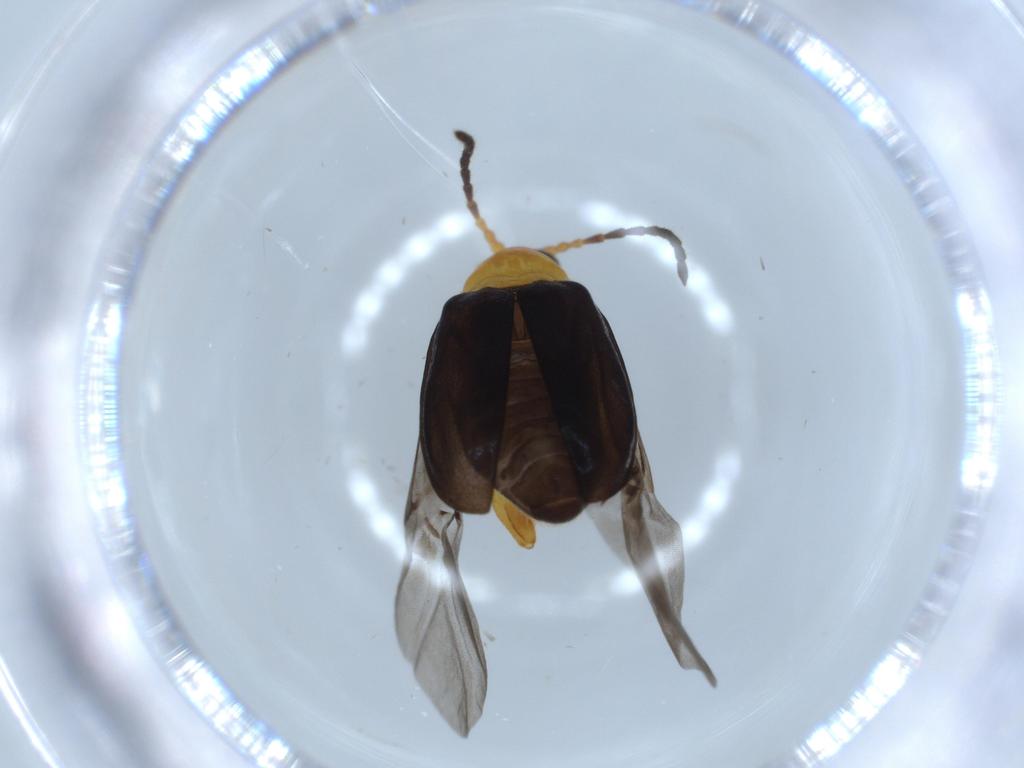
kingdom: Animalia
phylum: Arthropoda
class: Insecta
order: Coleoptera
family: Chrysomelidae
